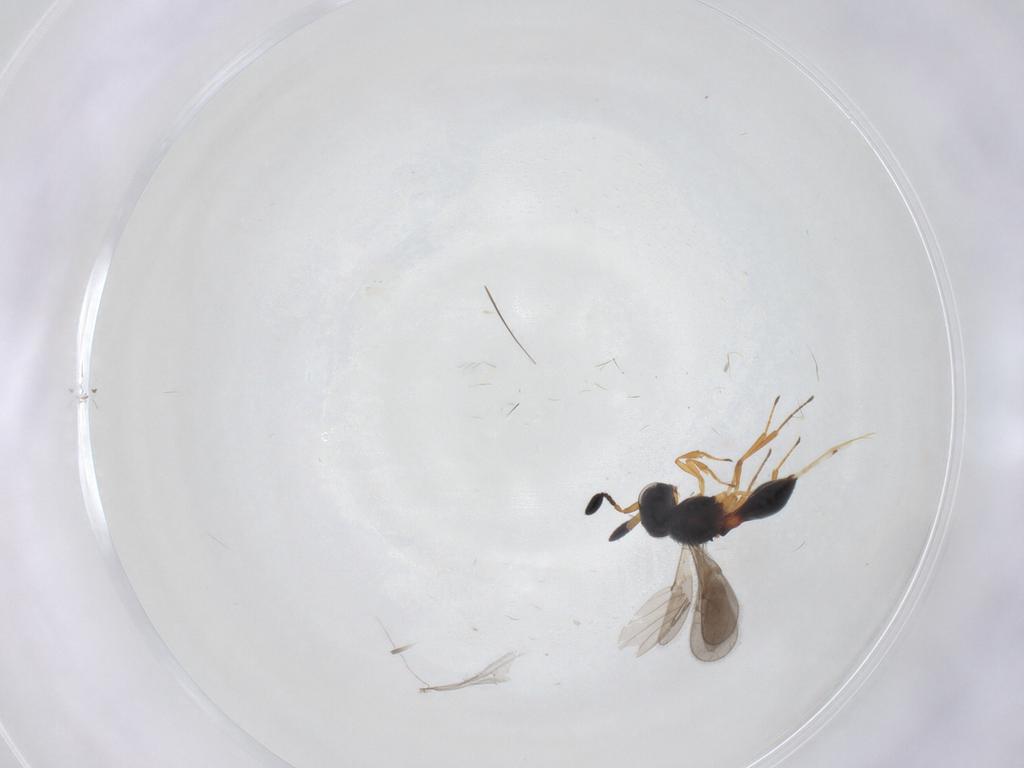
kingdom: Animalia
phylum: Arthropoda
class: Insecta
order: Hymenoptera
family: Scelionidae
